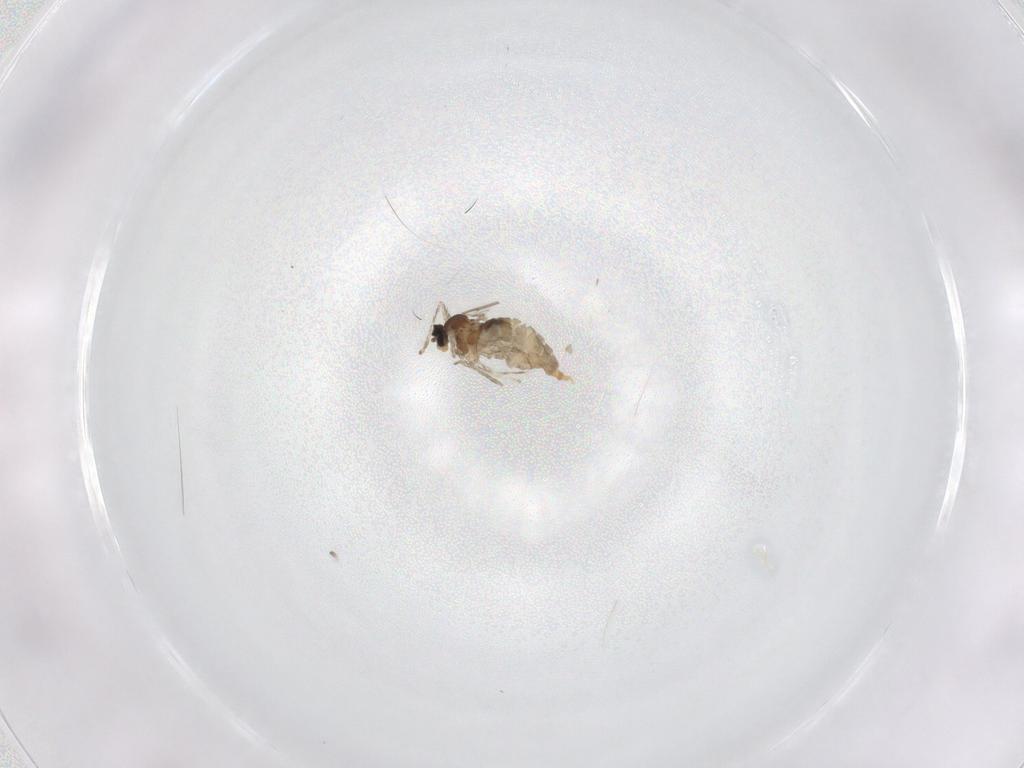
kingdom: Animalia
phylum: Arthropoda
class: Insecta
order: Diptera
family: Cecidomyiidae
